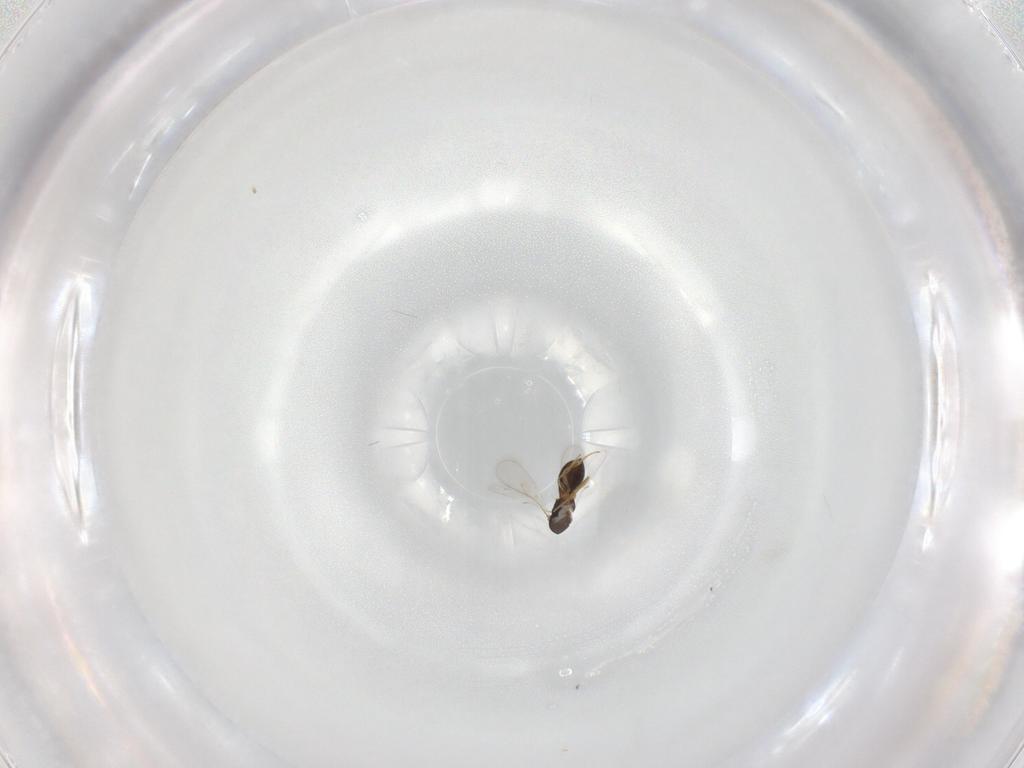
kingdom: Animalia
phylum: Arthropoda
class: Insecta
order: Hymenoptera
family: Scelionidae
